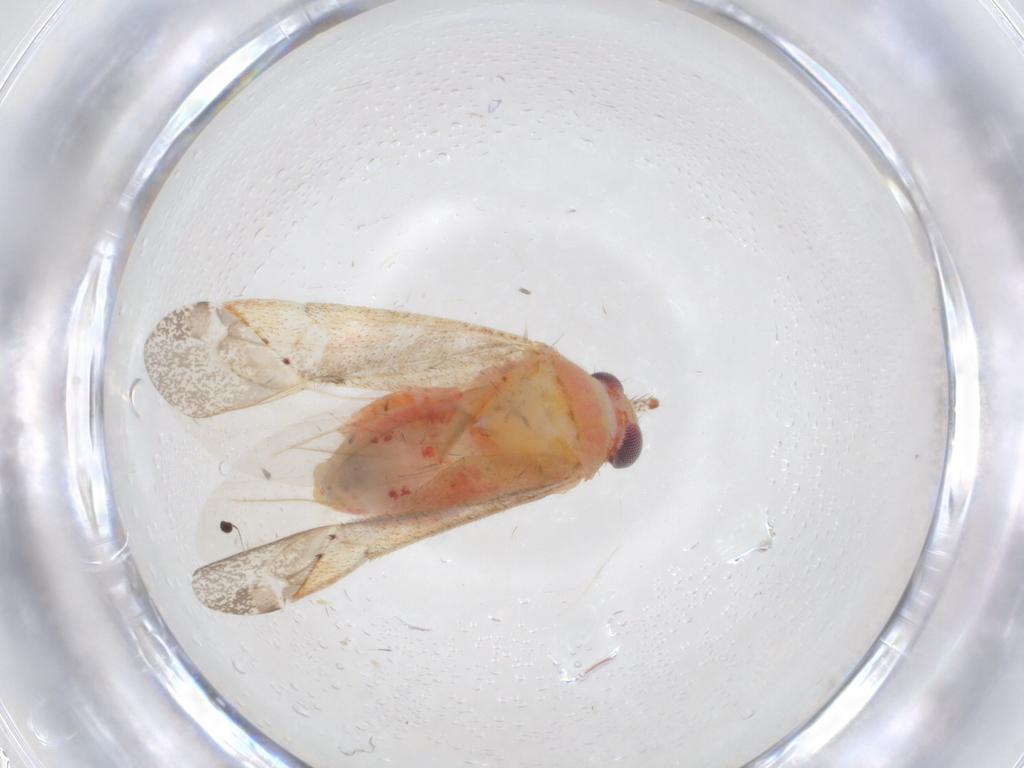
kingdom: Animalia
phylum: Arthropoda
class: Insecta
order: Hemiptera
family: Miridae
